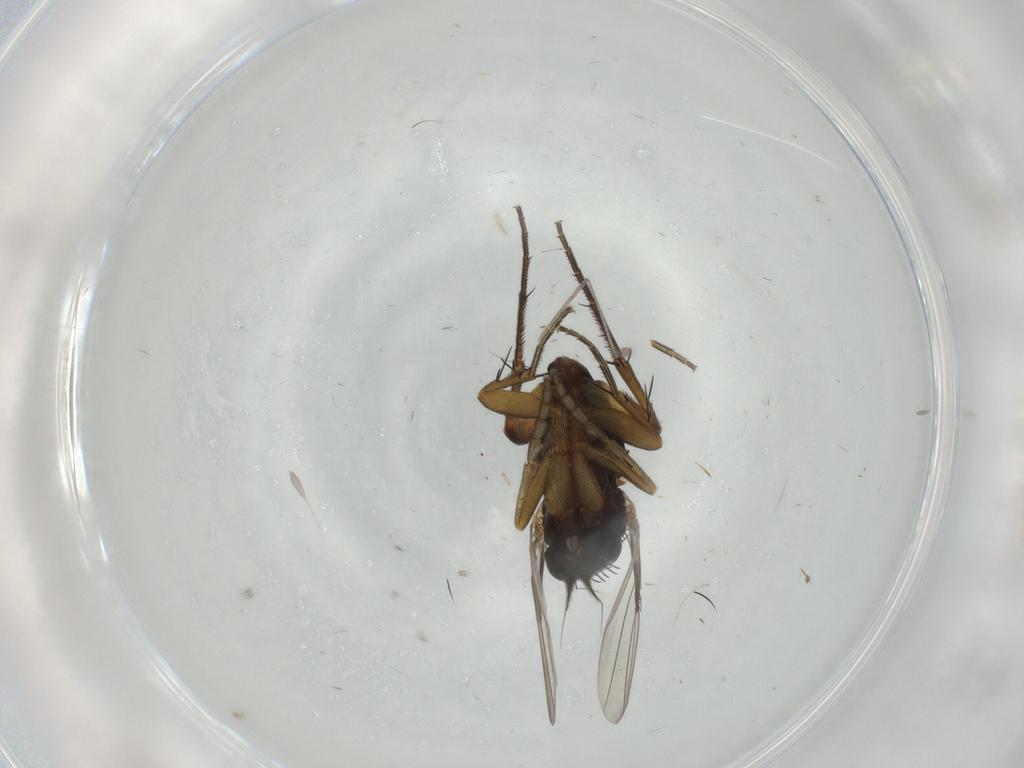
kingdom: Animalia
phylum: Arthropoda
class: Insecta
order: Diptera
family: Phoridae
